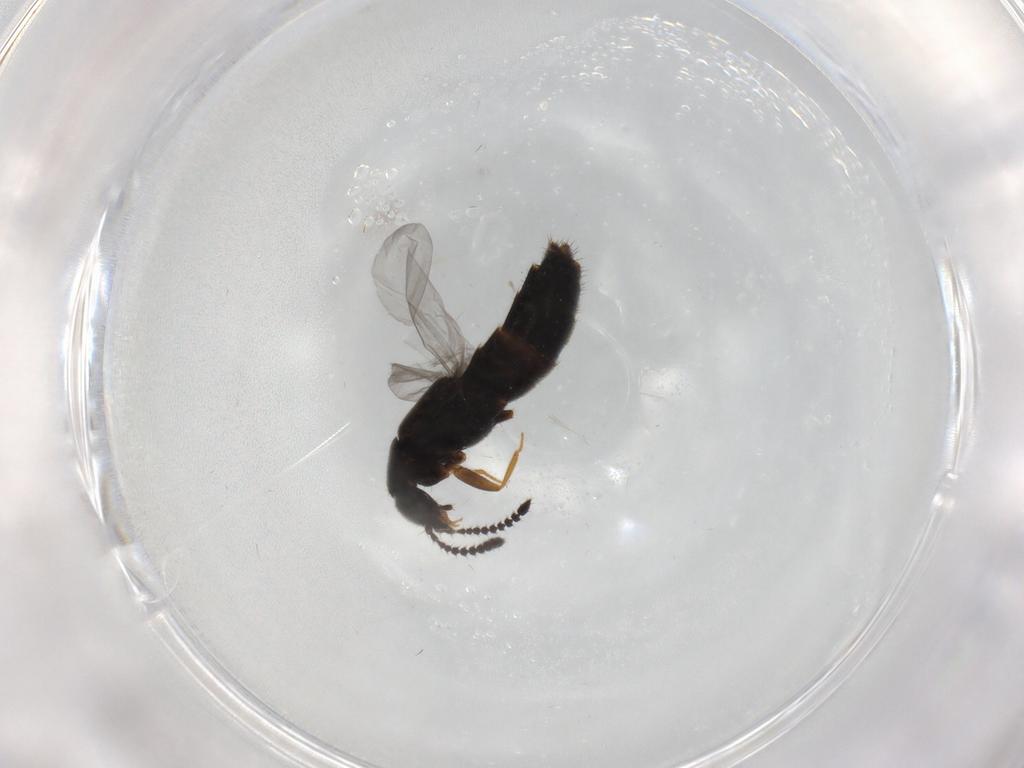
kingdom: Animalia
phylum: Arthropoda
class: Insecta
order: Coleoptera
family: Staphylinidae
